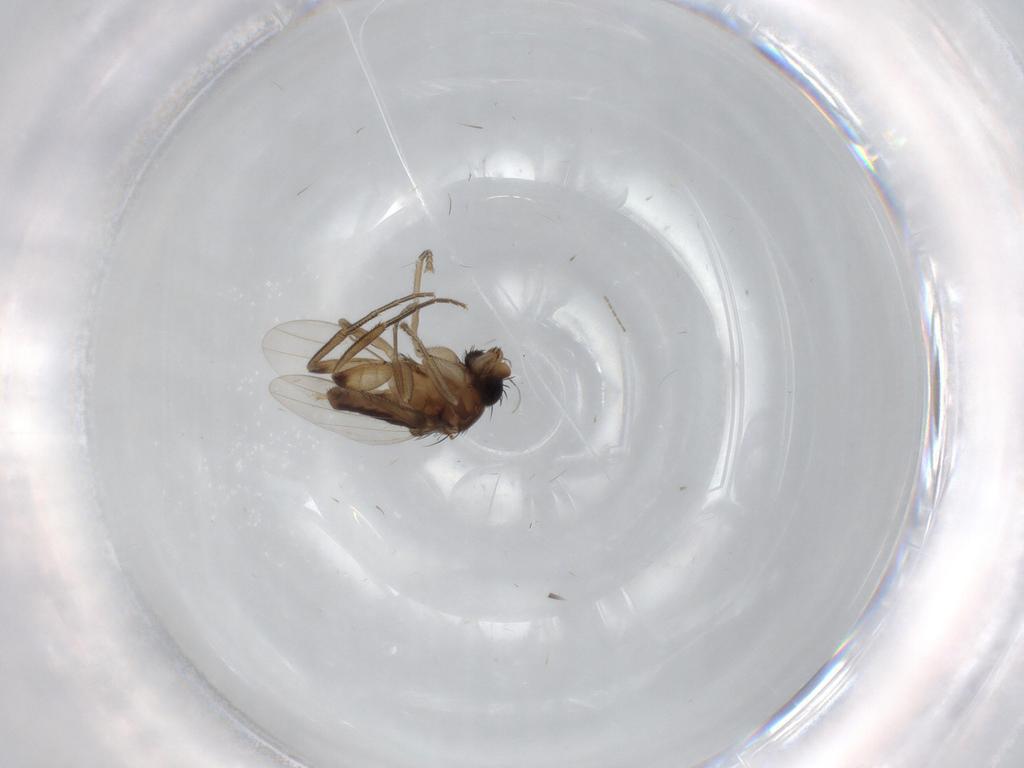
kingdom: Animalia
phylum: Arthropoda
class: Insecta
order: Diptera
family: Phoridae
